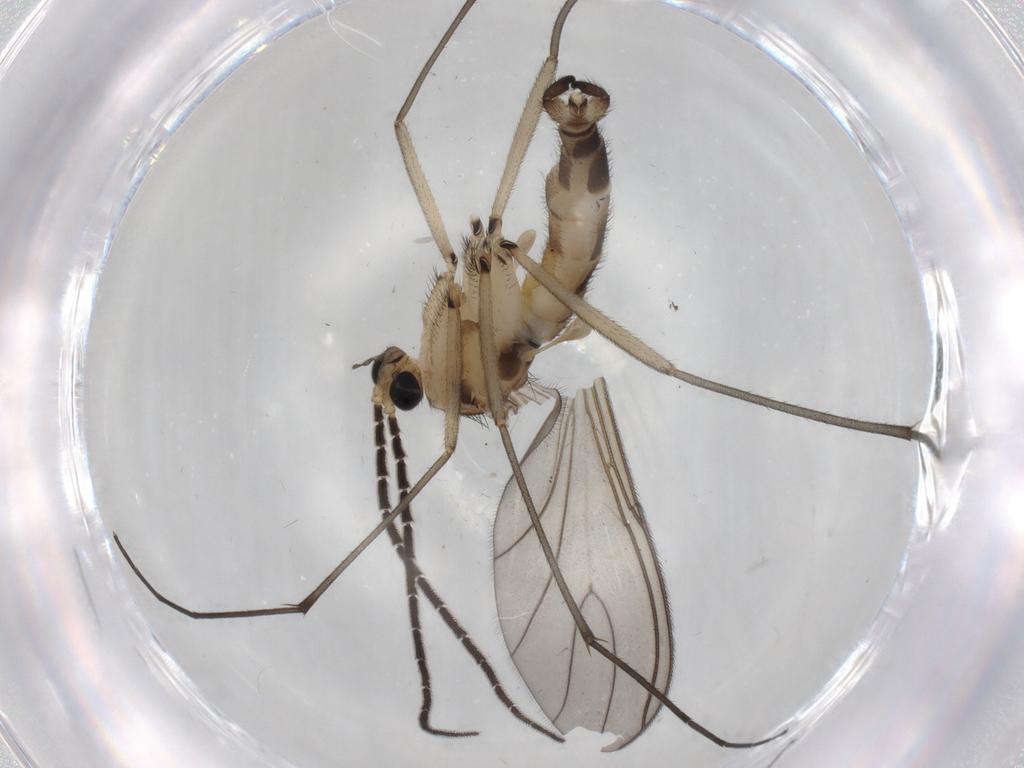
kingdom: Animalia
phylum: Arthropoda
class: Insecta
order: Diptera
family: Sciaridae
